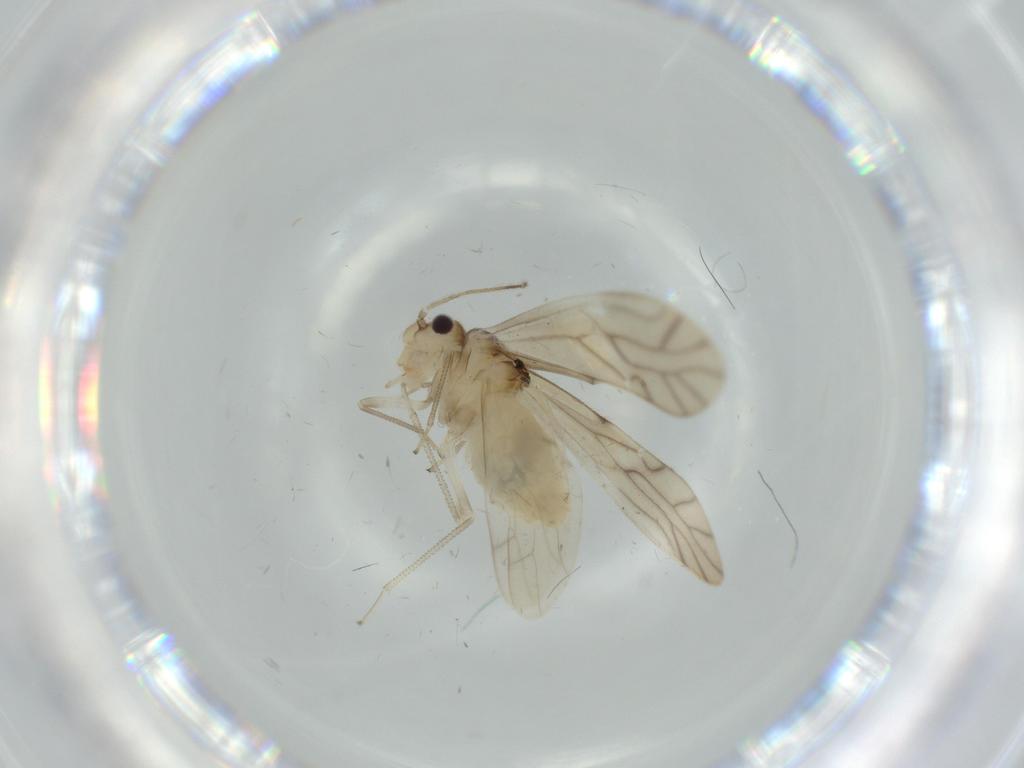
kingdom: Animalia
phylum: Arthropoda
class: Insecta
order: Psocodea
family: Caeciliusidae
